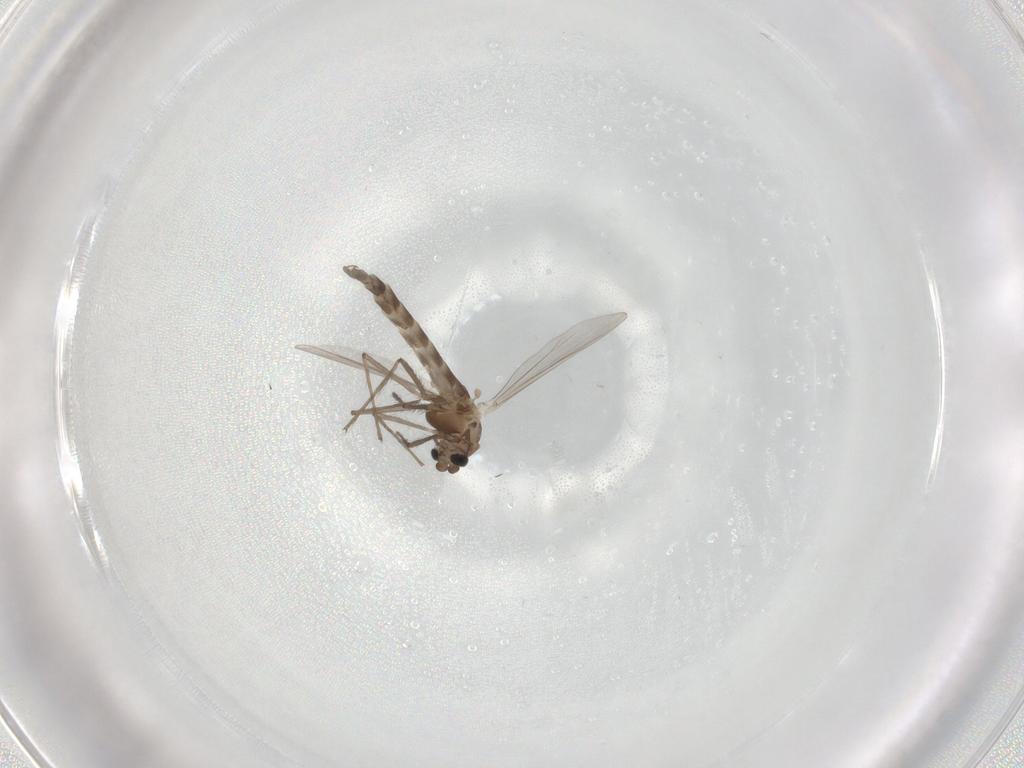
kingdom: Animalia
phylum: Arthropoda
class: Insecta
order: Diptera
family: Chironomidae
